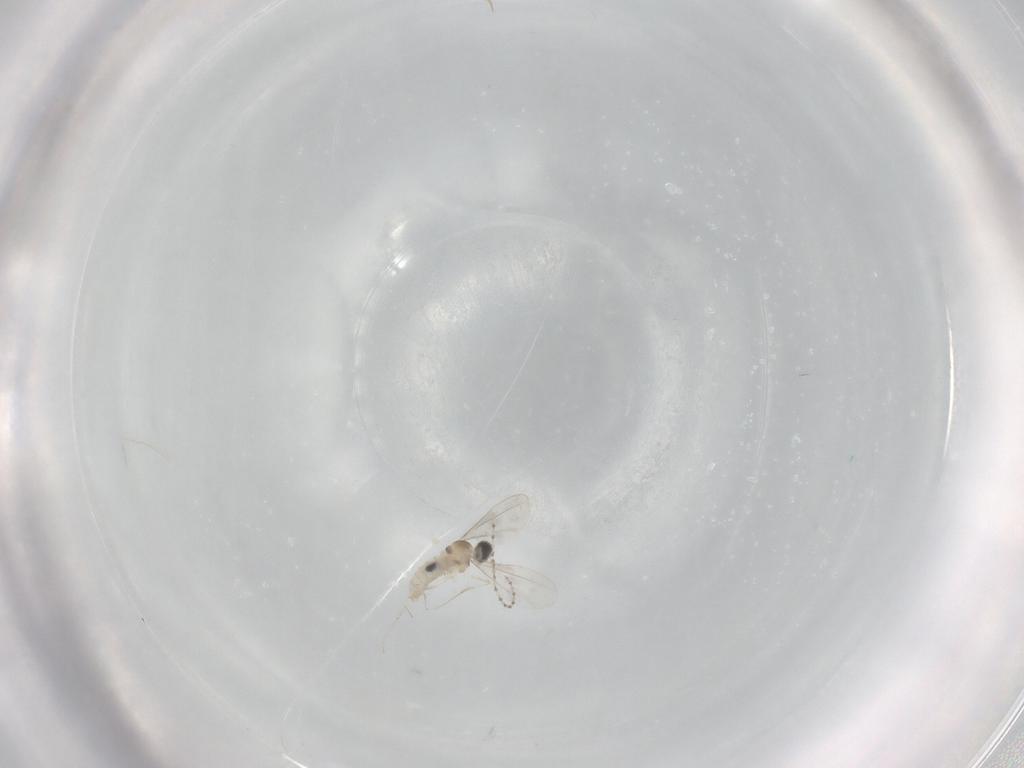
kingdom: Animalia
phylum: Arthropoda
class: Insecta
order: Diptera
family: Cecidomyiidae
